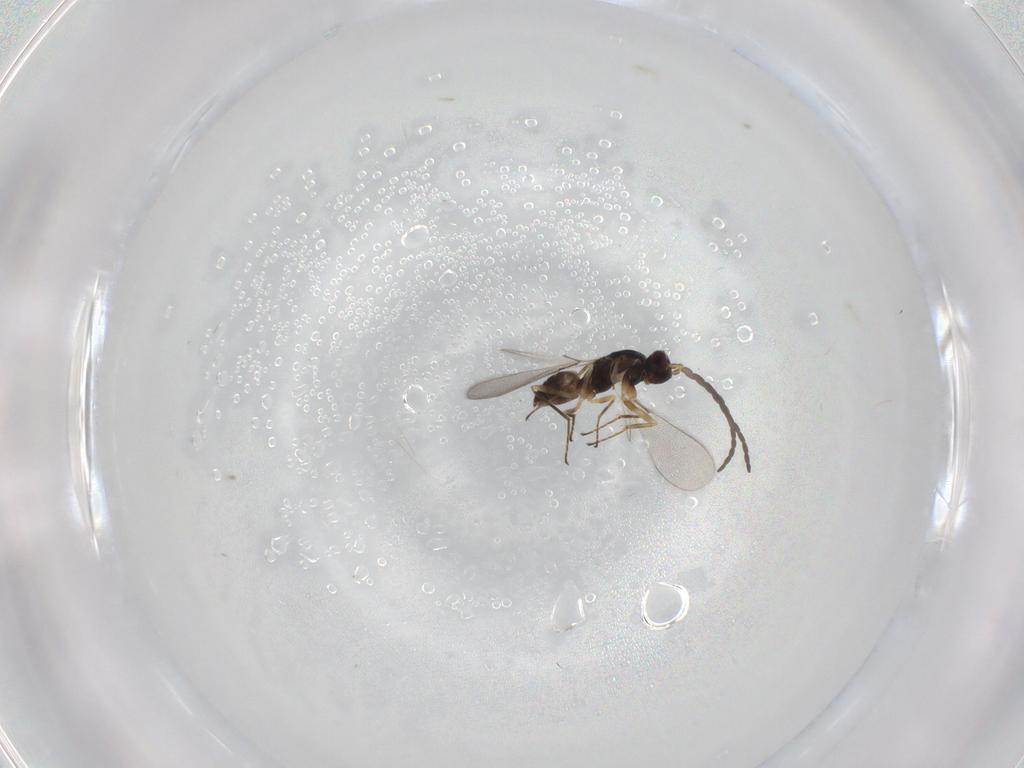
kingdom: Animalia
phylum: Arthropoda
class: Insecta
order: Hymenoptera
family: Mymaridae
